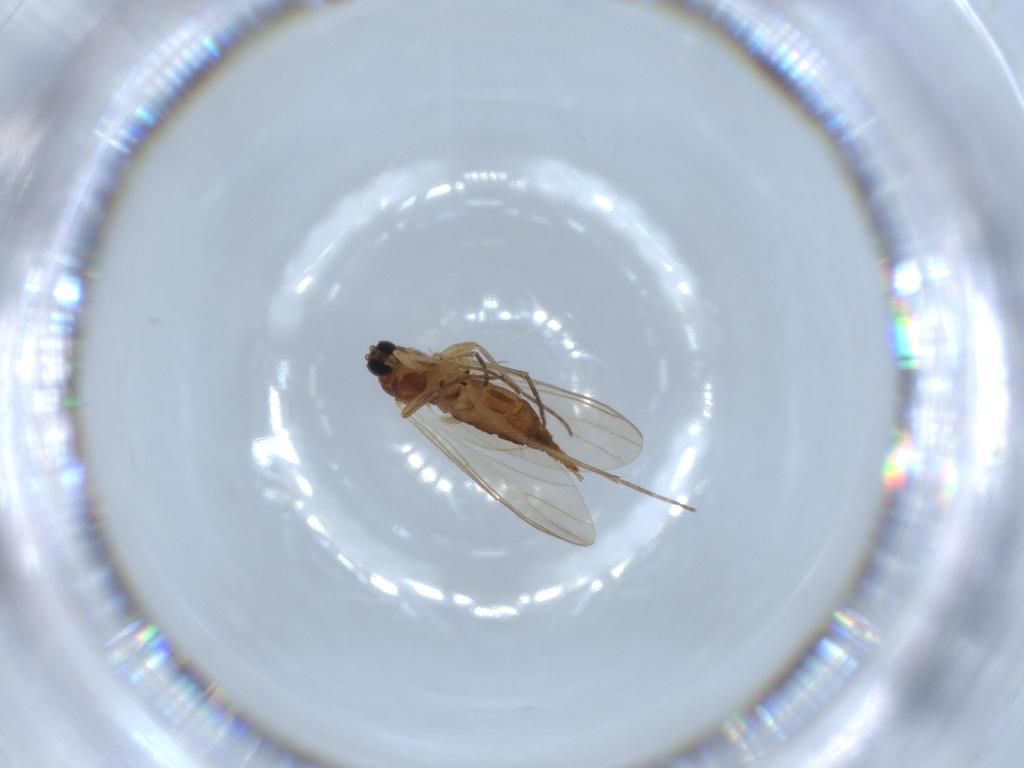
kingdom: Animalia
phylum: Arthropoda
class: Insecta
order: Diptera
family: Sciaridae
